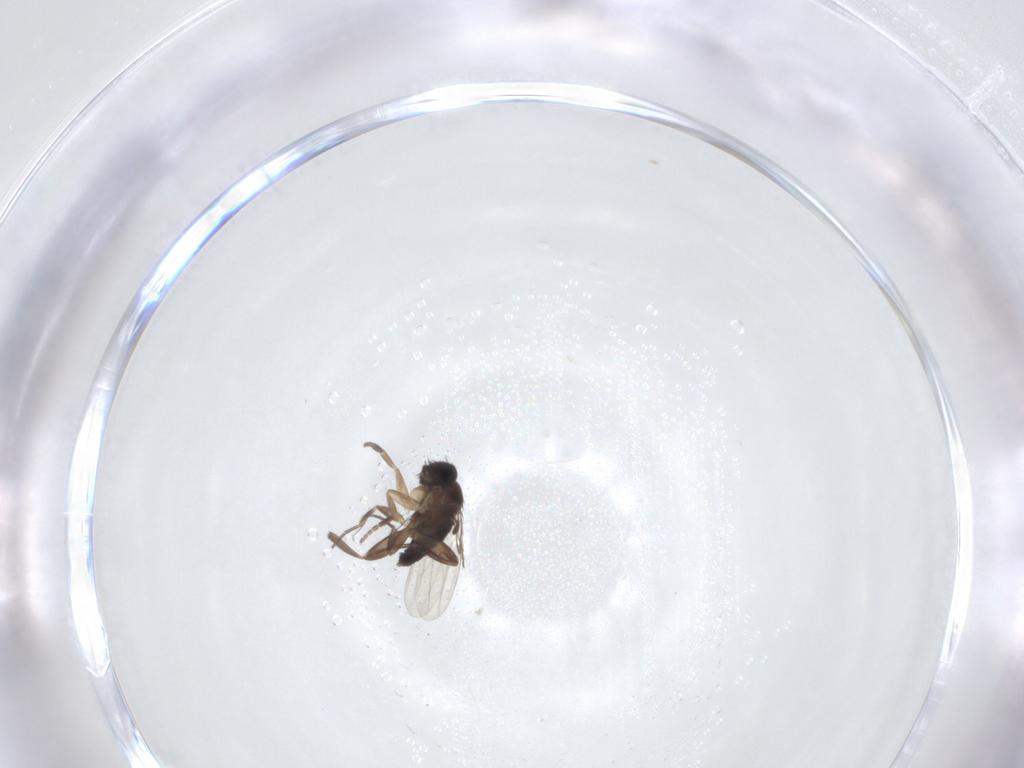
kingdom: Animalia
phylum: Arthropoda
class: Insecta
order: Diptera
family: Phoridae
